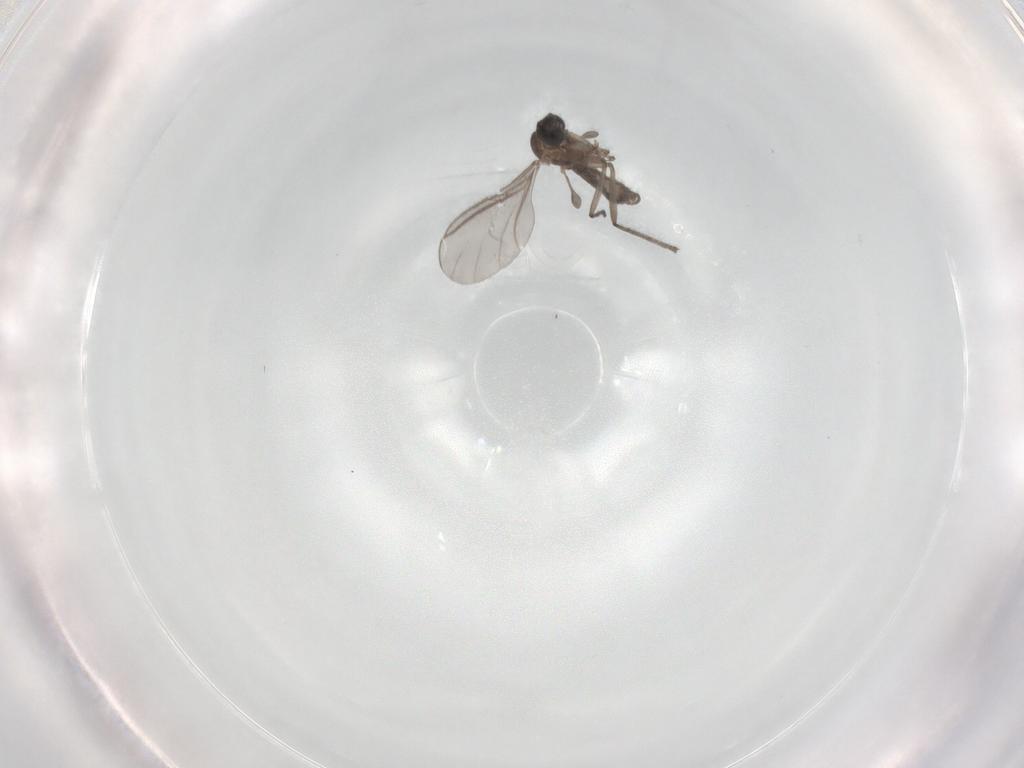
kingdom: Animalia
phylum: Arthropoda
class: Insecta
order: Diptera
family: Sciaridae
